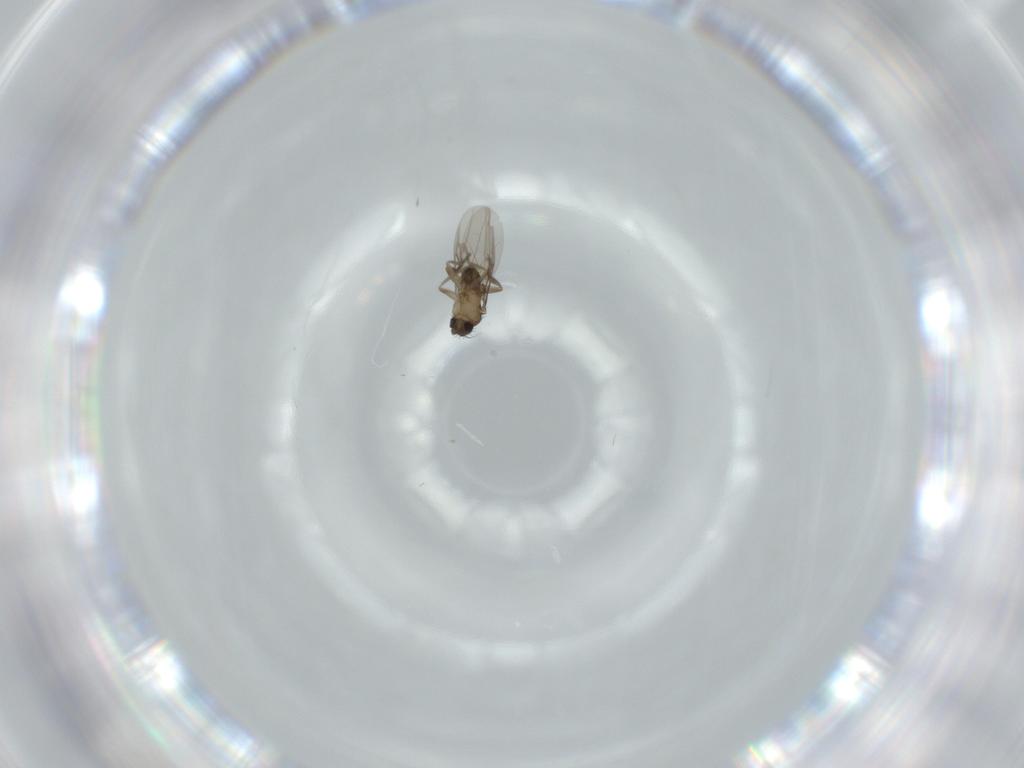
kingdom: Animalia
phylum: Arthropoda
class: Insecta
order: Diptera
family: Phoridae
